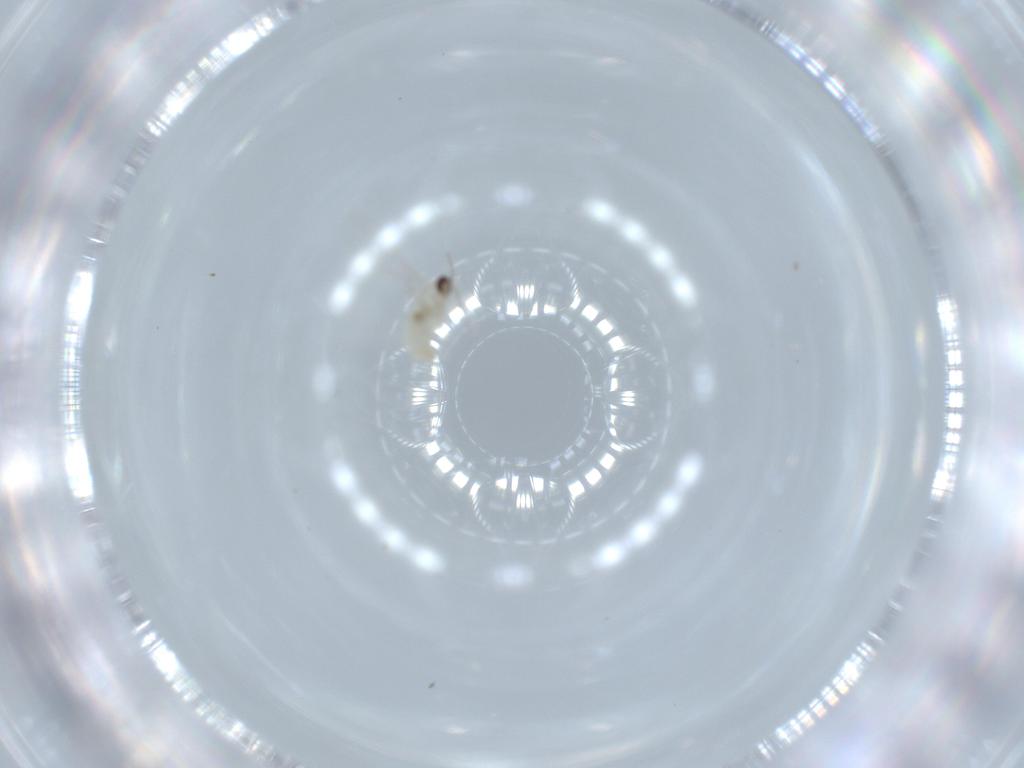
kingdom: Animalia
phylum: Arthropoda
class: Insecta
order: Diptera
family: Cecidomyiidae
